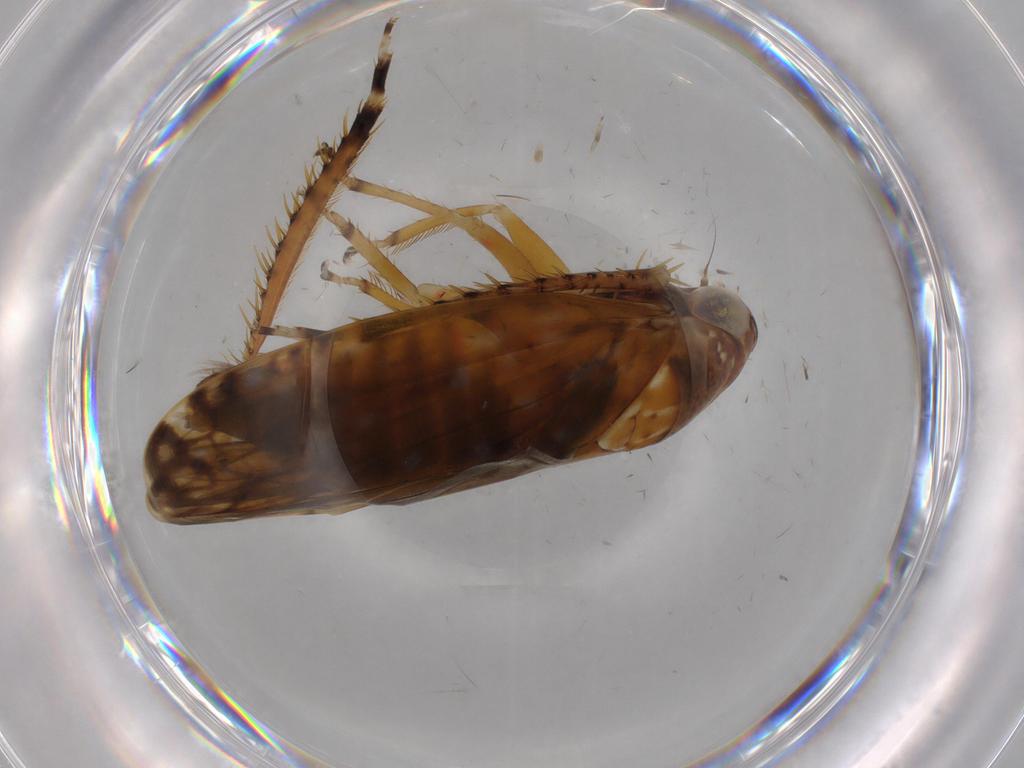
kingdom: Animalia
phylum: Arthropoda
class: Insecta
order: Hemiptera
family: Cicadellidae
